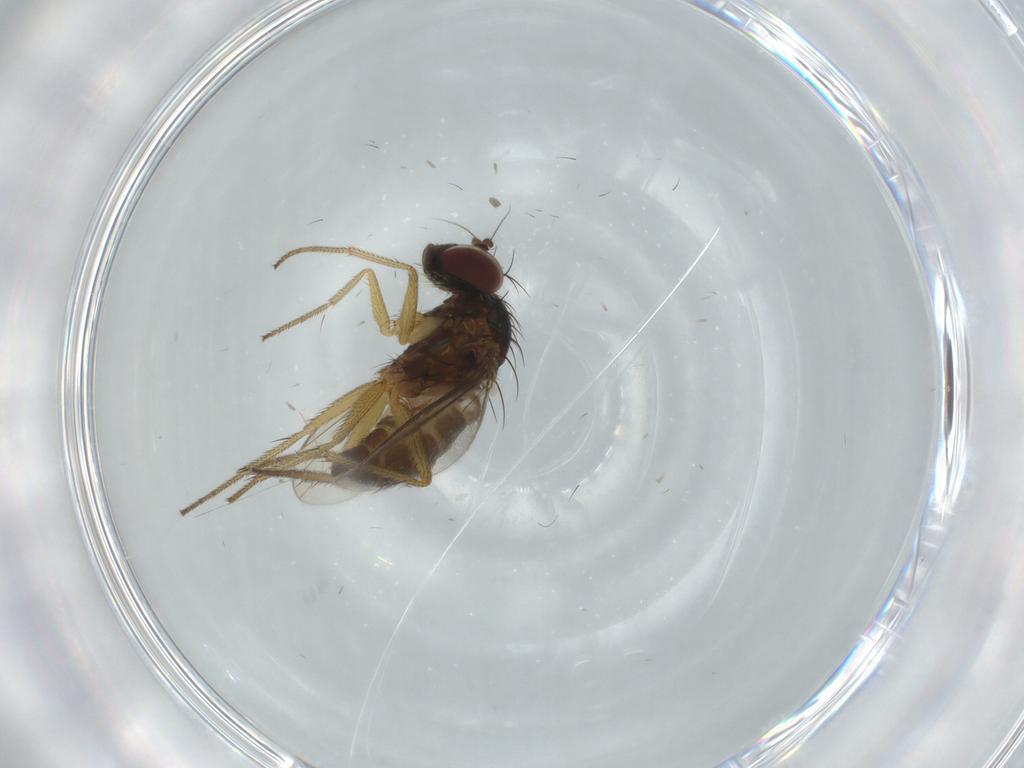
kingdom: Animalia
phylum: Arthropoda
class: Insecta
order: Diptera
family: Dolichopodidae
